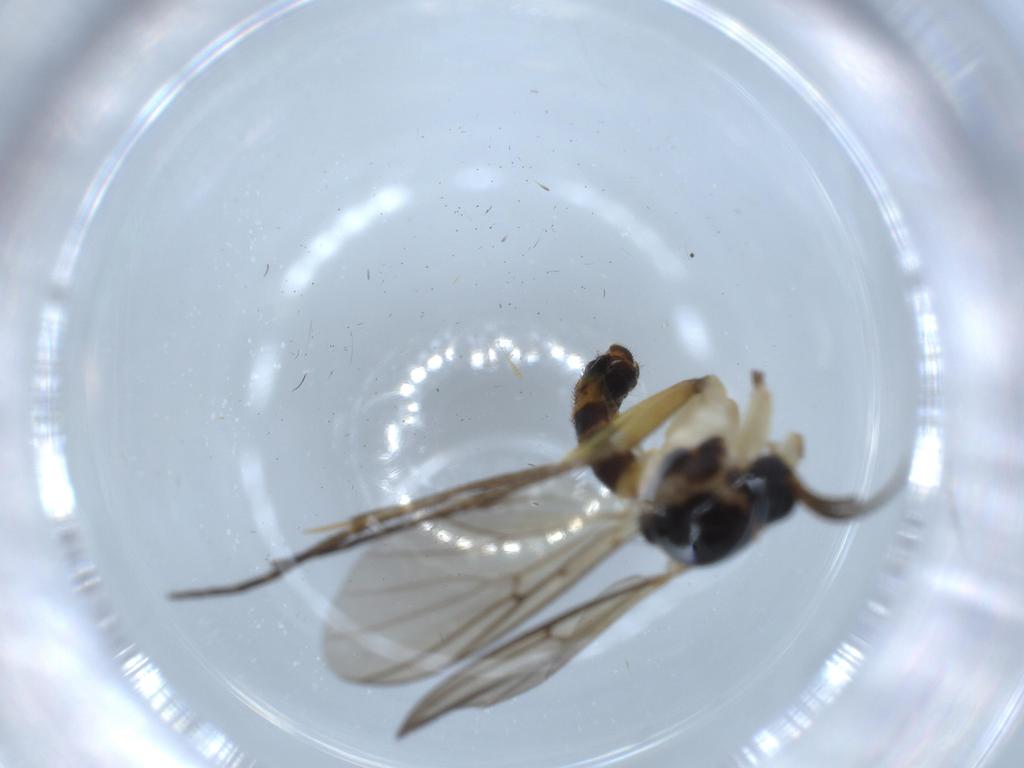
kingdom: Animalia
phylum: Arthropoda
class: Insecta
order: Diptera
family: Mycetophilidae
